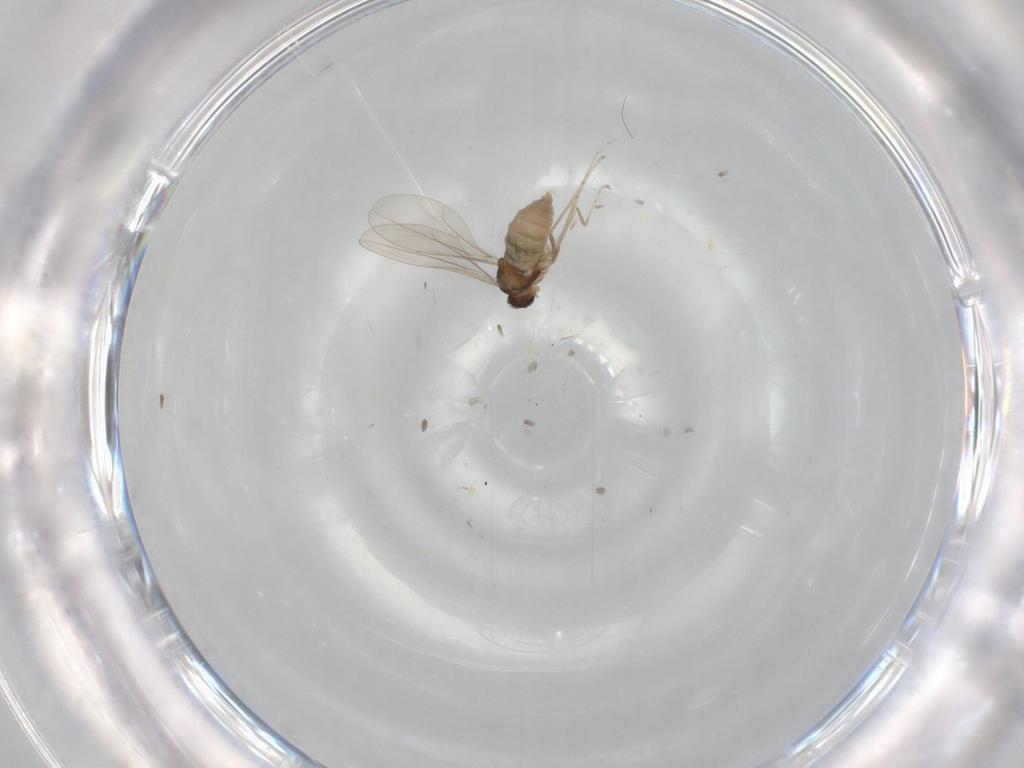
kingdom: Animalia
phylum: Arthropoda
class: Insecta
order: Diptera
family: Cecidomyiidae
